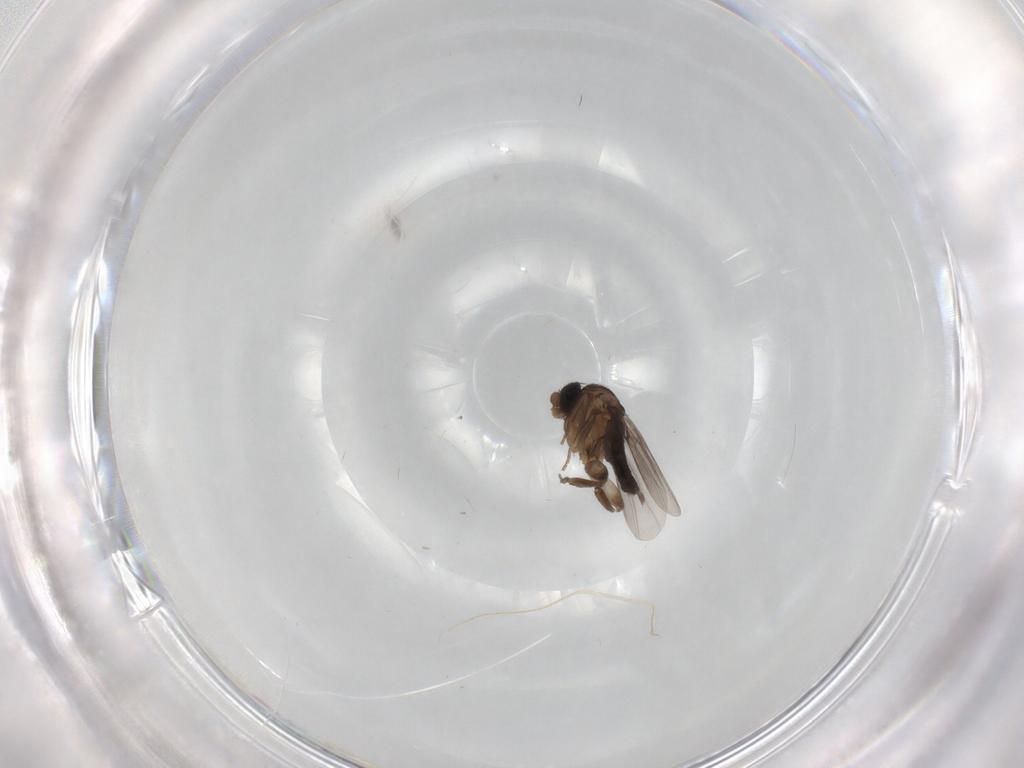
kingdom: Animalia
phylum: Arthropoda
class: Insecta
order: Diptera
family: Phoridae
